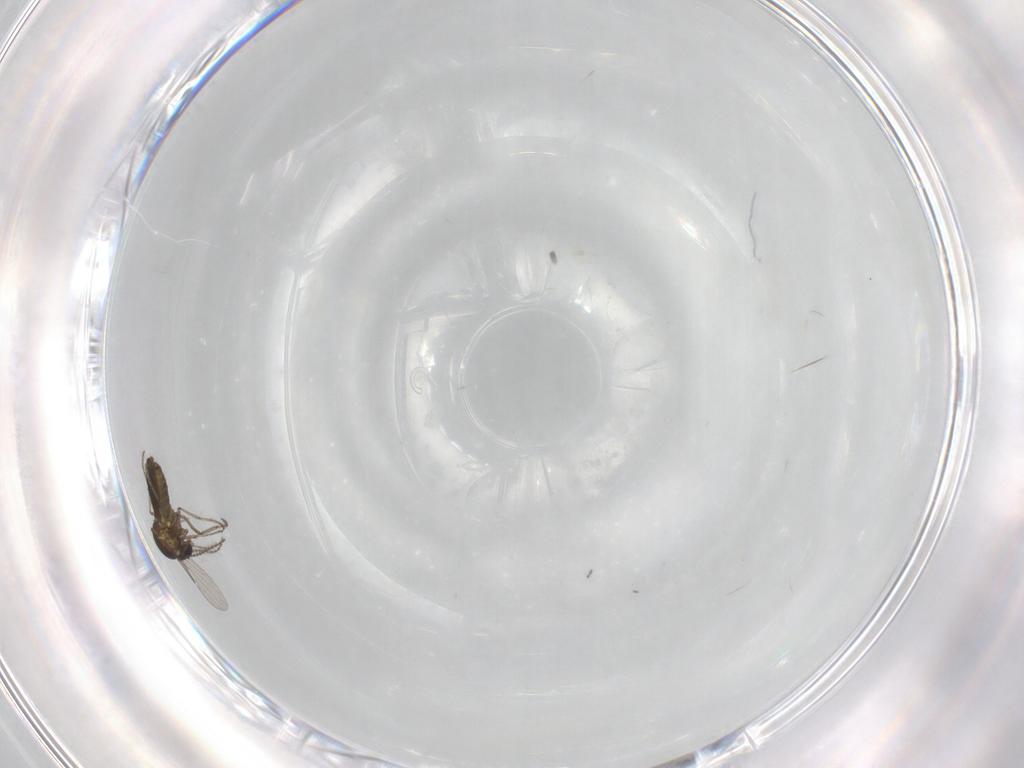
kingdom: Animalia
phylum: Arthropoda
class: Insecta
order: Diptera
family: Ceratopogonidae
